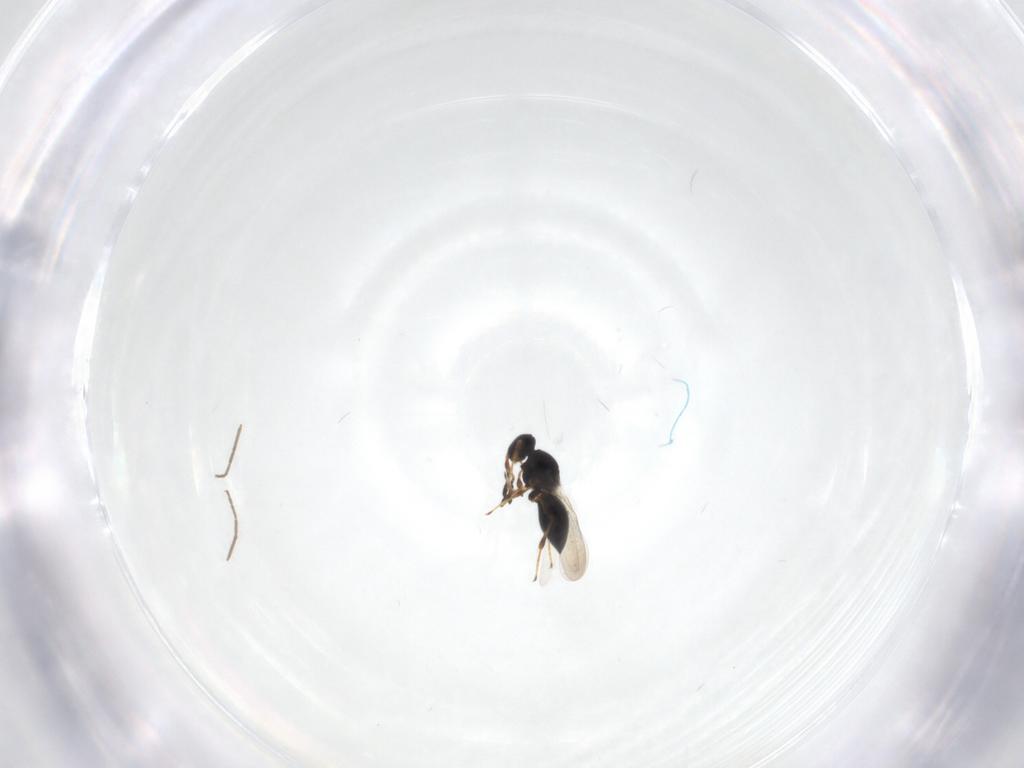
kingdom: Animalia
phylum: Arthropoda
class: Insecta
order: Hymenoptera
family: Platygastridae
